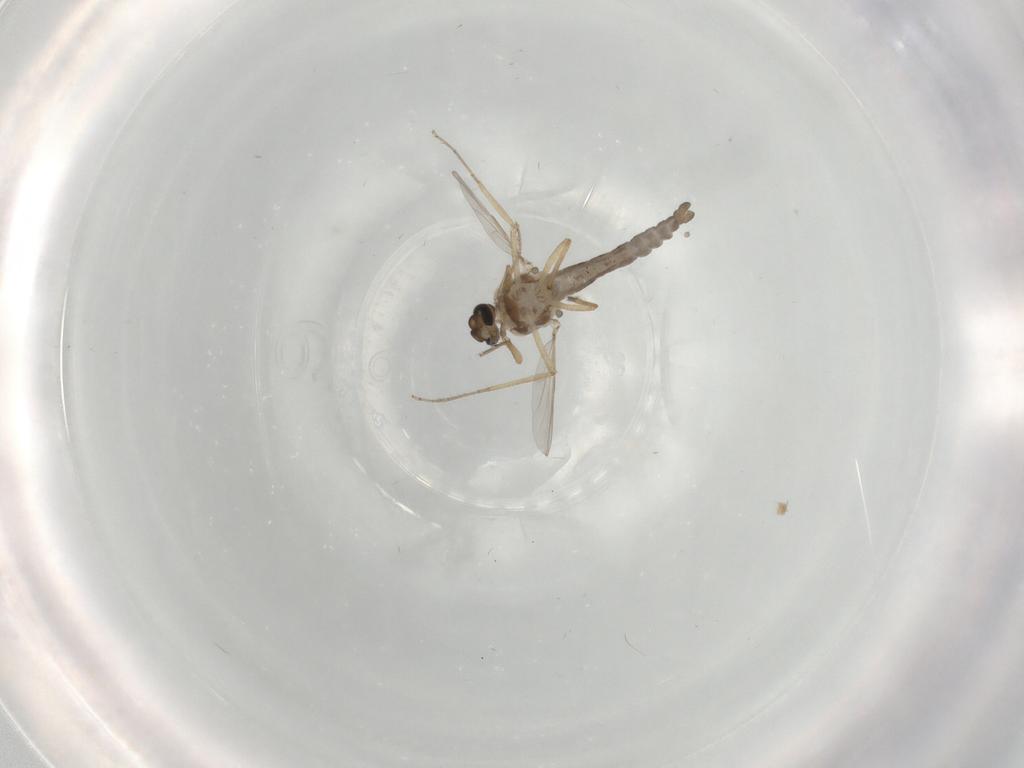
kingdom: Animalia
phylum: Arthropoda
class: Insecta
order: Diptera
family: Ceratopogonidae
